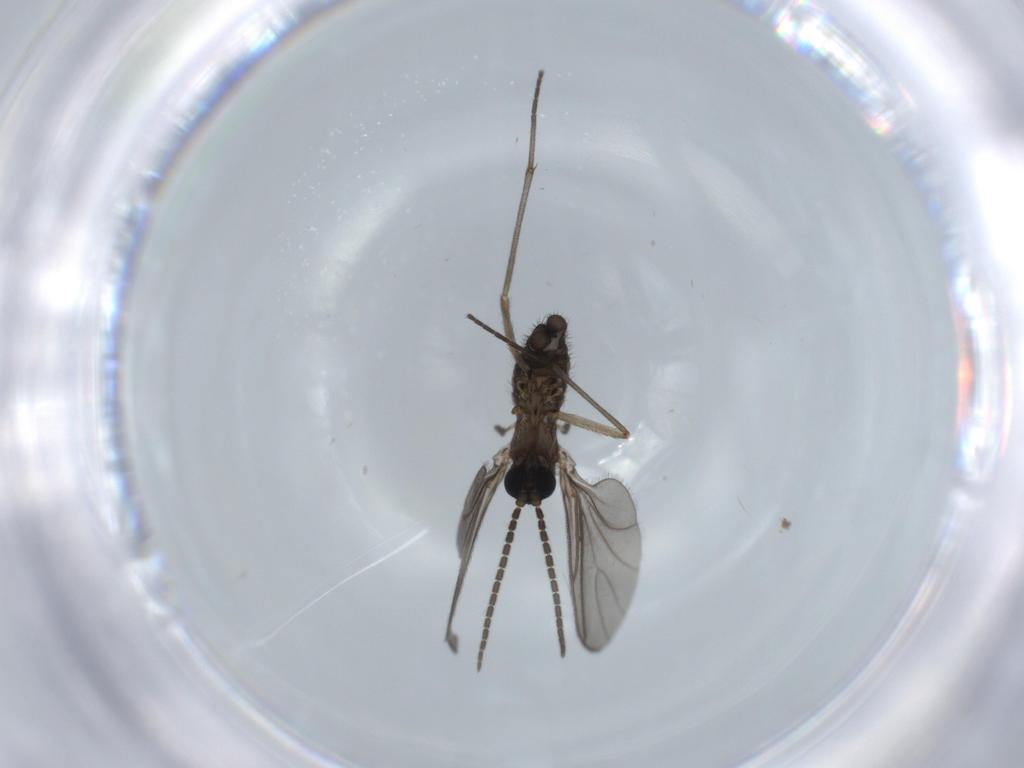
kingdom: Animalia
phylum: Arthropoda
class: Insecta
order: Diptera
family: Sciaridae
